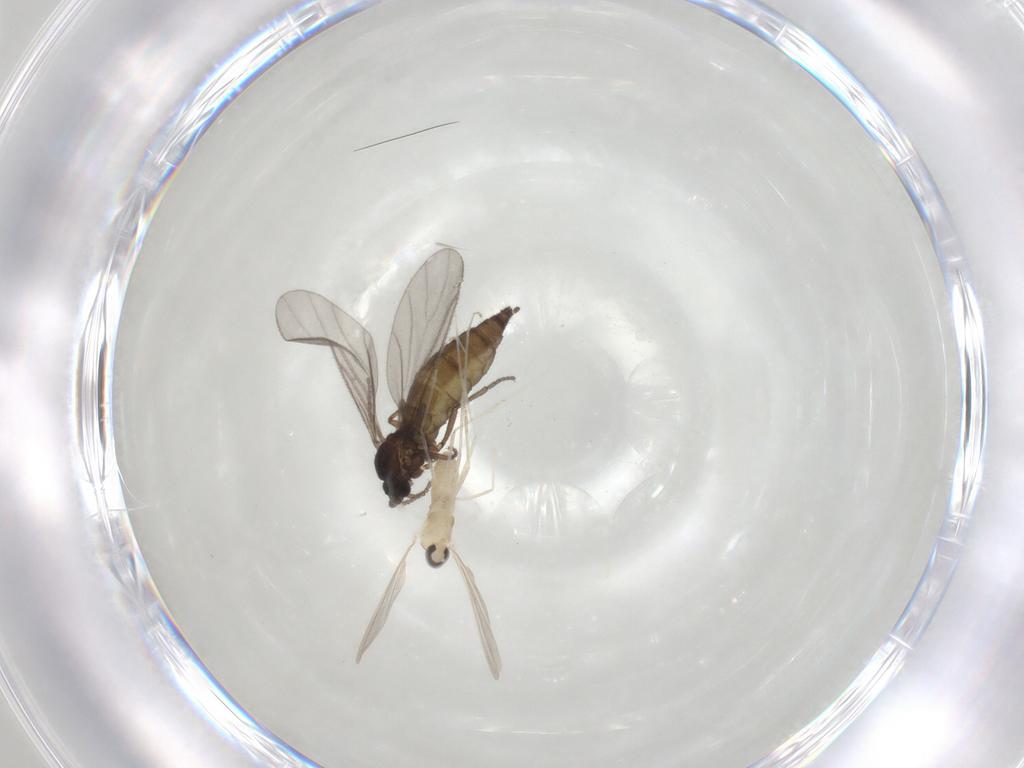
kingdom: Animalia
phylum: Arthropoda
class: Insecta
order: Diptera
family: Sciaridae
